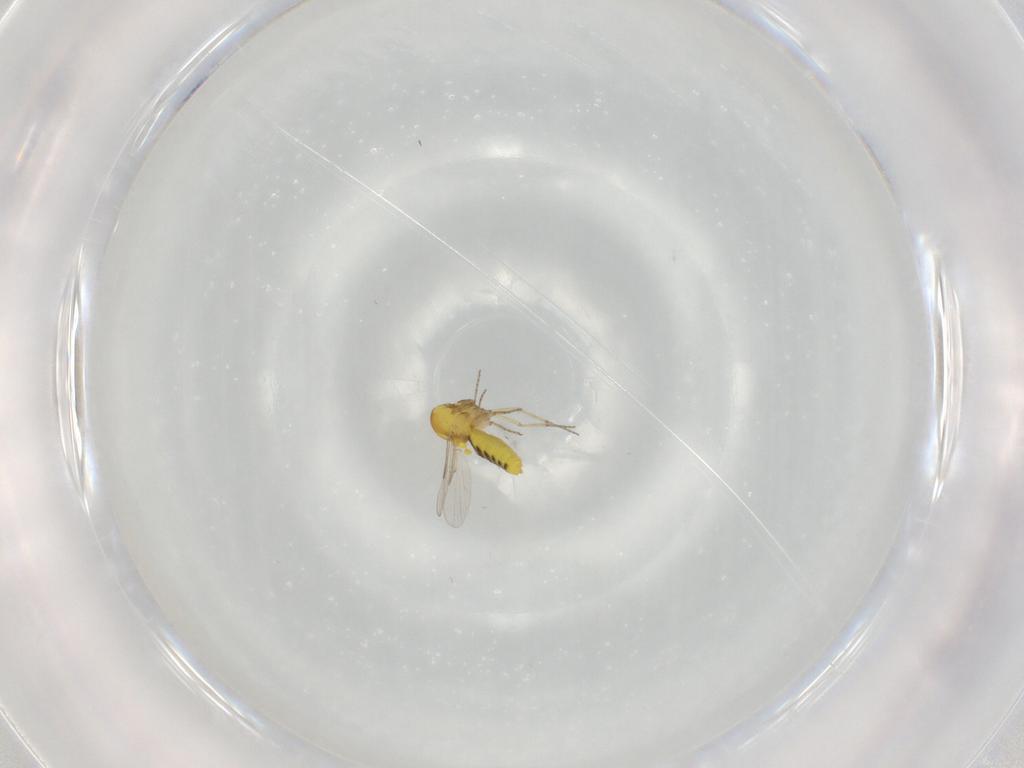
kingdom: Animalia
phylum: Arthropoda
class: Insecta
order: Diptera
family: Ceratopogonidae
